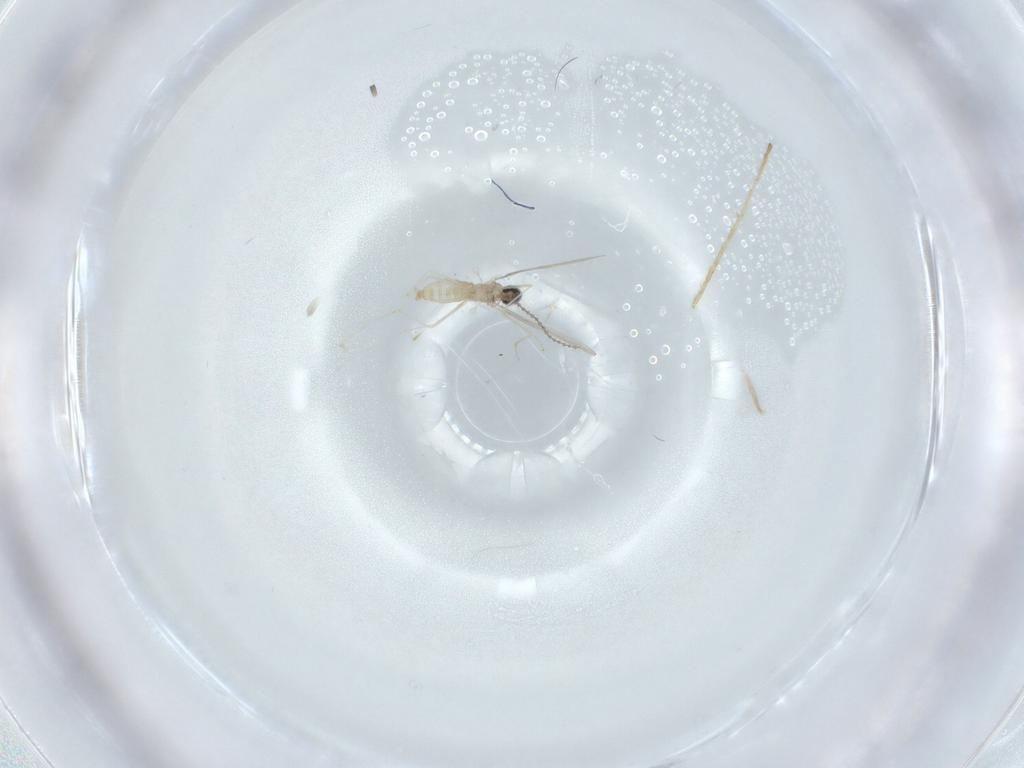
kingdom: Animalia
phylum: Arthropoda
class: Insecta
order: Diptera
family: Limoniidae
